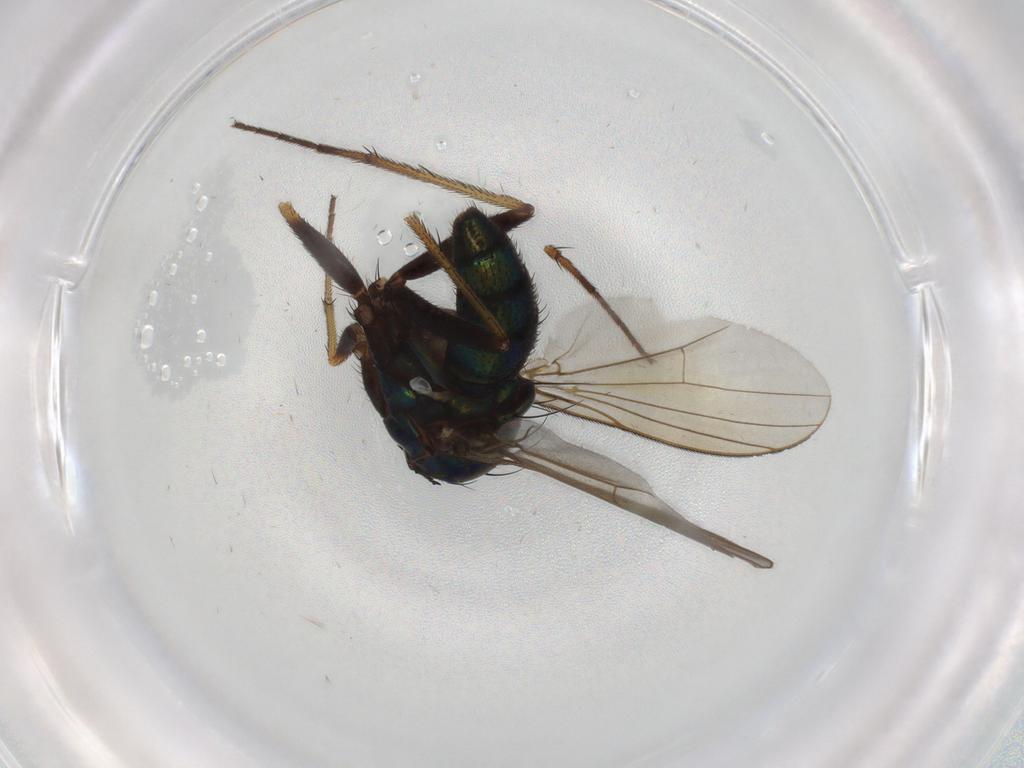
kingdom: Animalia
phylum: Arthropoda
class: Insecta
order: Diptera
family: Dolichopodidae
